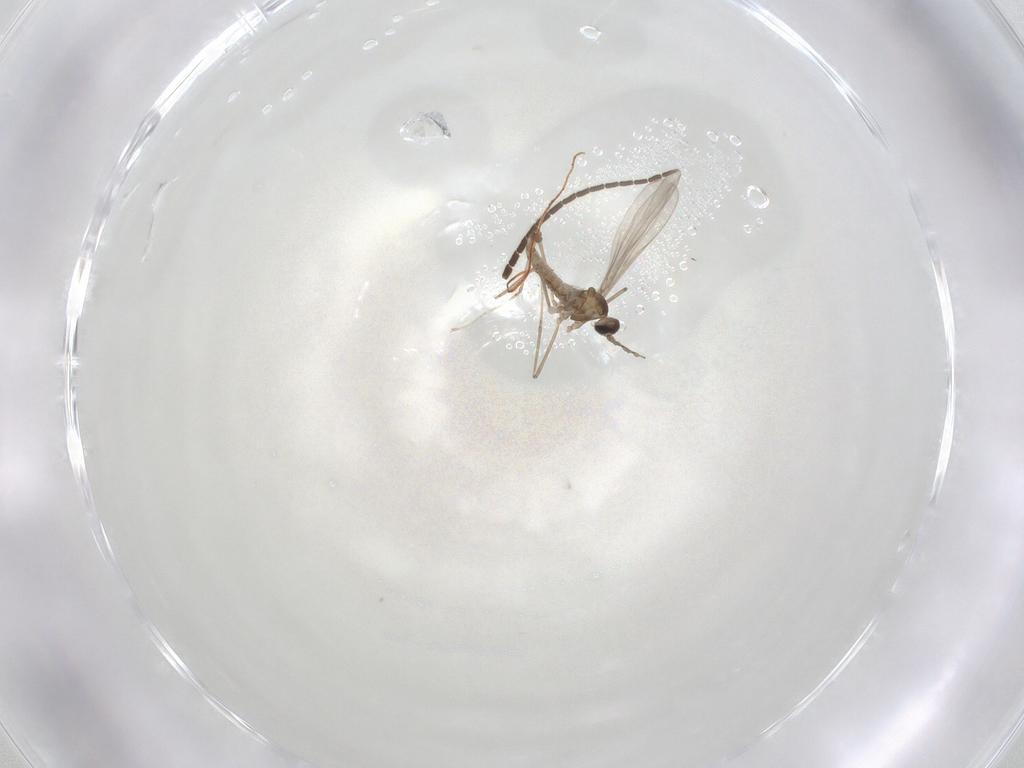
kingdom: Animalia
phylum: Arthropoda
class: Insecta
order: Diptera
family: Cecidomyiidae
